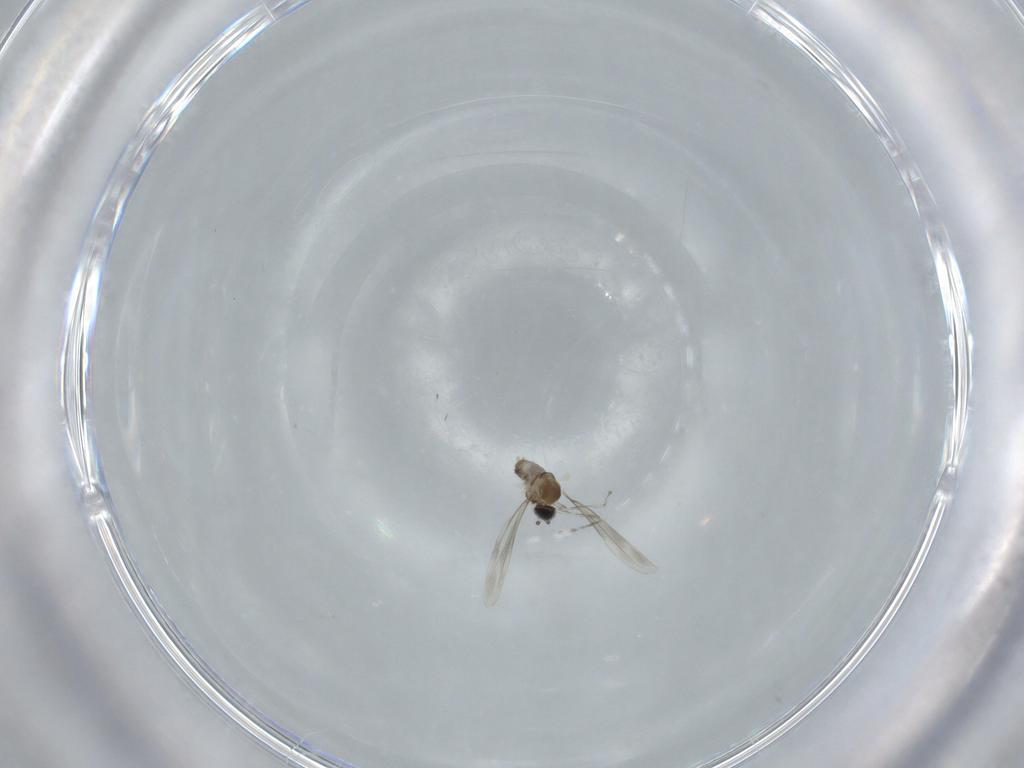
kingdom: Animalia
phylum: Arthropoda
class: Insecta
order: Diptera
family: Cecidomyiidae
